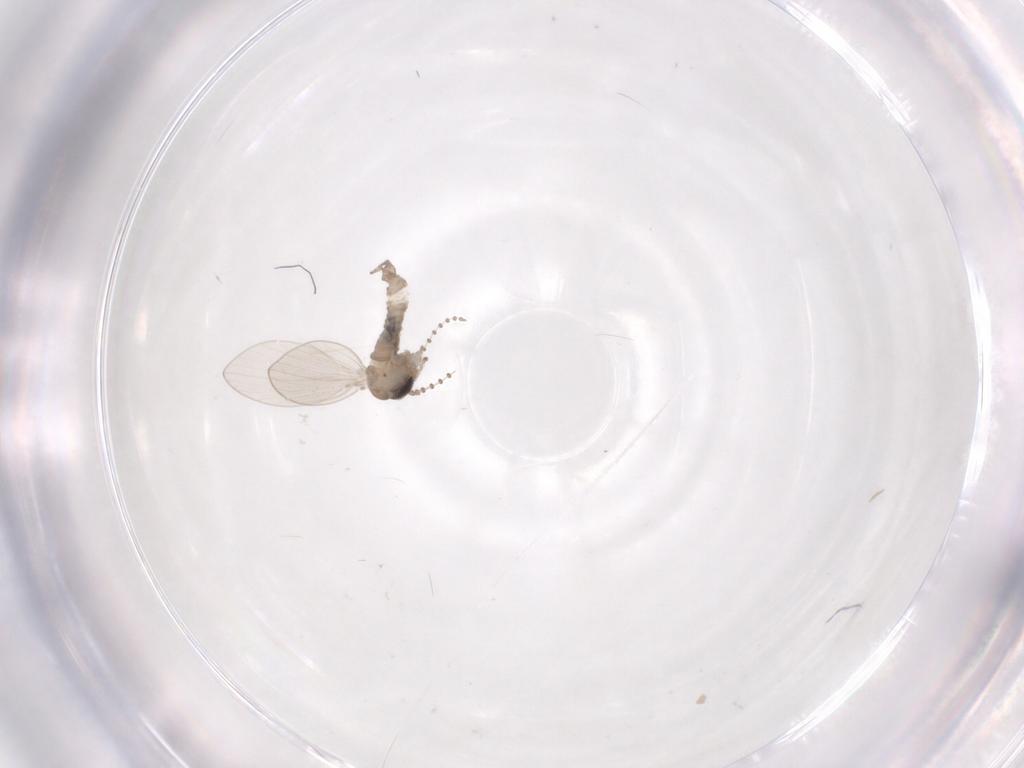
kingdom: Animalia
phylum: Arthropoda
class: Insecta
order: Diptera
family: Psychodidae
